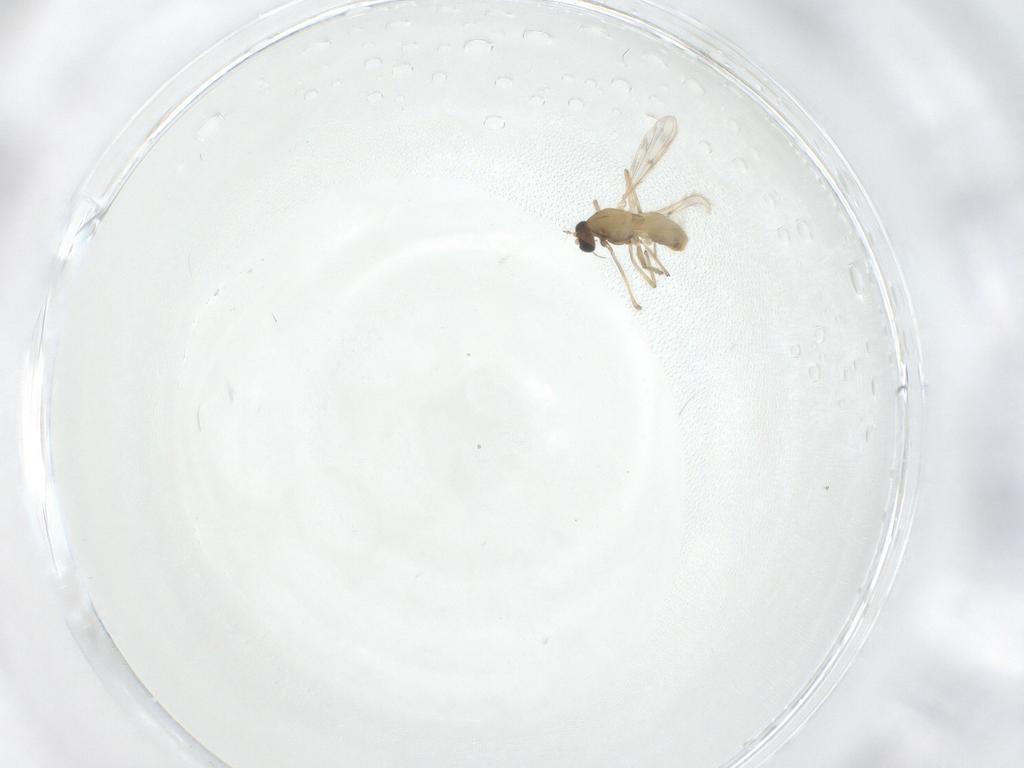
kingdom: Animalia
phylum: Arthropoda
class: Insecta
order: Diptera
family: Chironomidae
